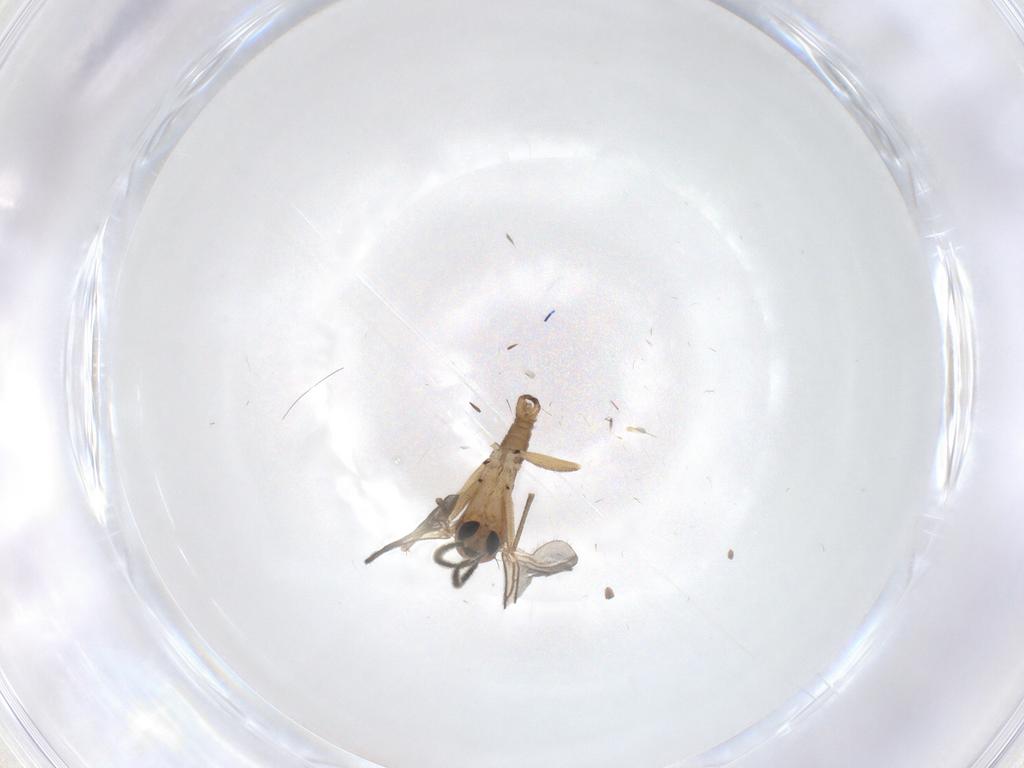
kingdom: Animalia
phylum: Arthropoda
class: Insecta
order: Diptera
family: Sciaridae
